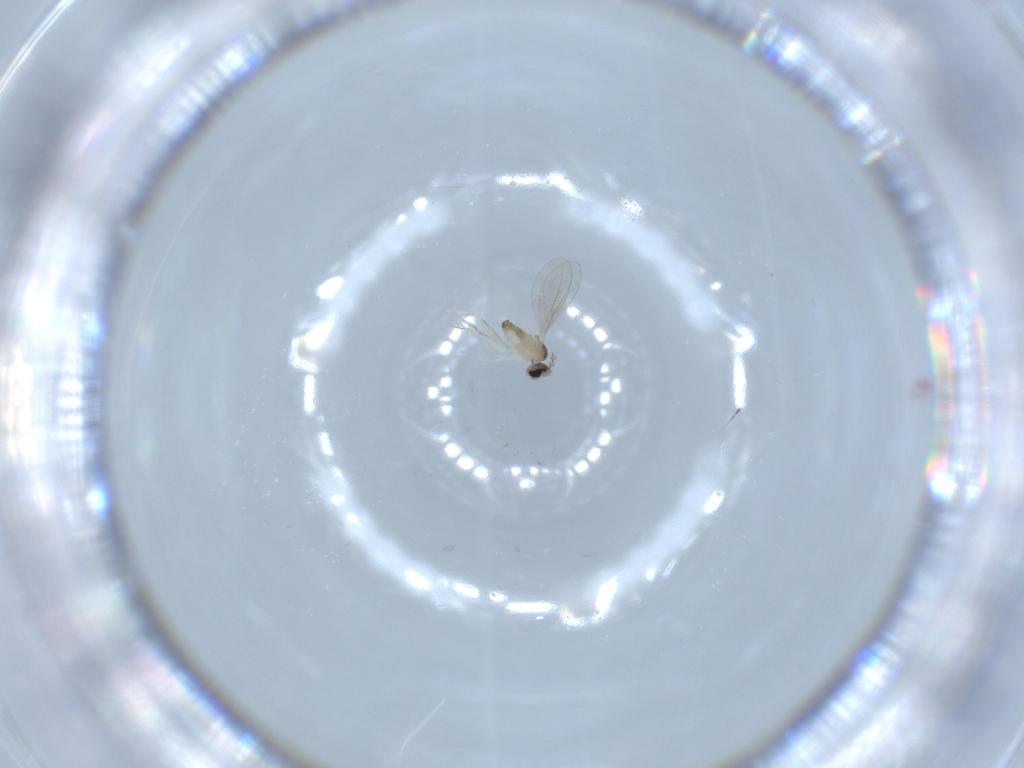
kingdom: Animalia
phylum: Arthropoda
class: Insecta
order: Diptera
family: Cecidomyiidae
